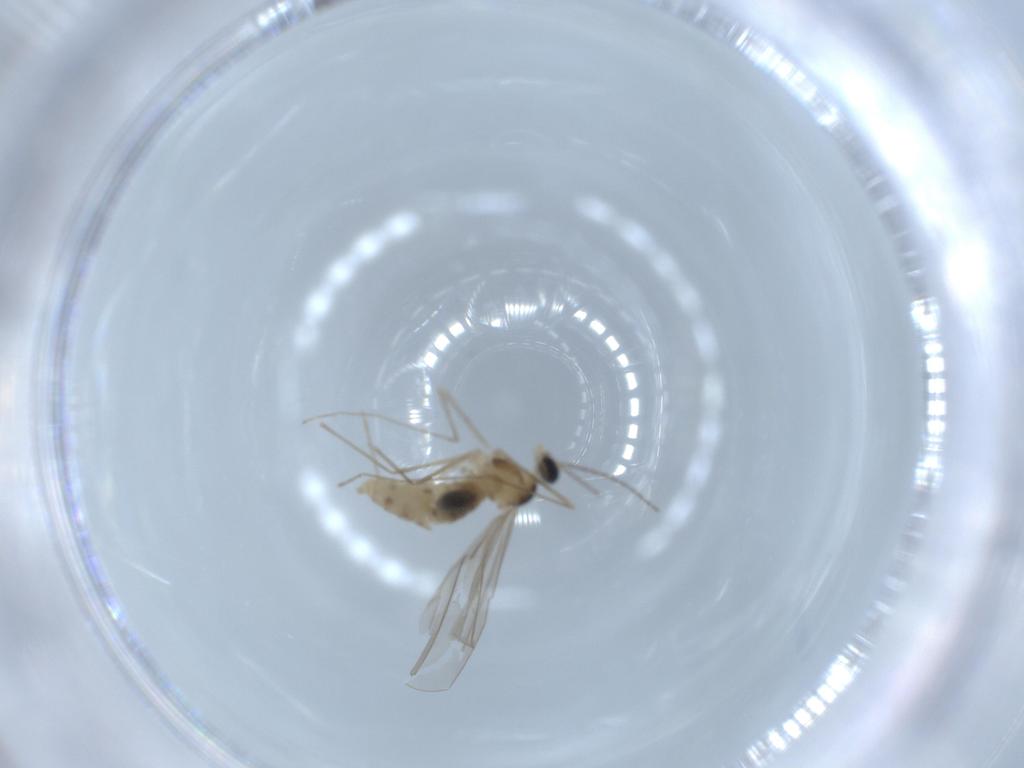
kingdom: Animalia
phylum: Arthropoda
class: Insecta
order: Diptera
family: Cecidomyiidae
